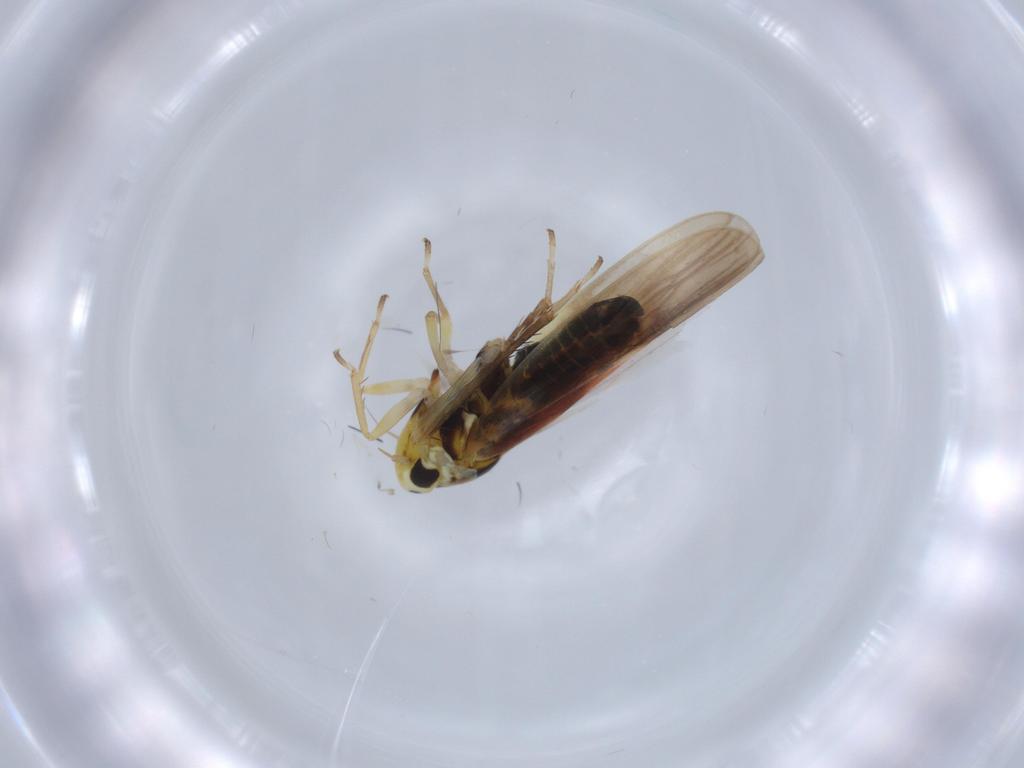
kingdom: Animalia
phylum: Arthropoda
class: Insecta
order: Hemiptera
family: Cicadellidae
